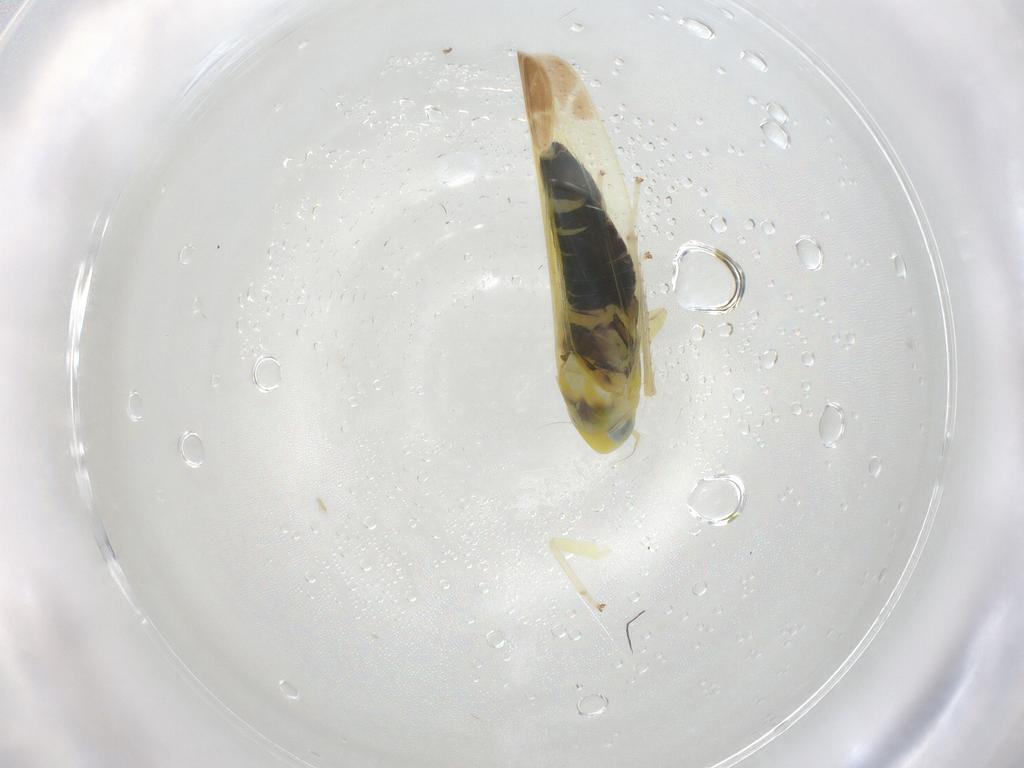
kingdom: Animalia
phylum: Arthropoda
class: Insecta
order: Hemiptera
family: Cicadellidae
